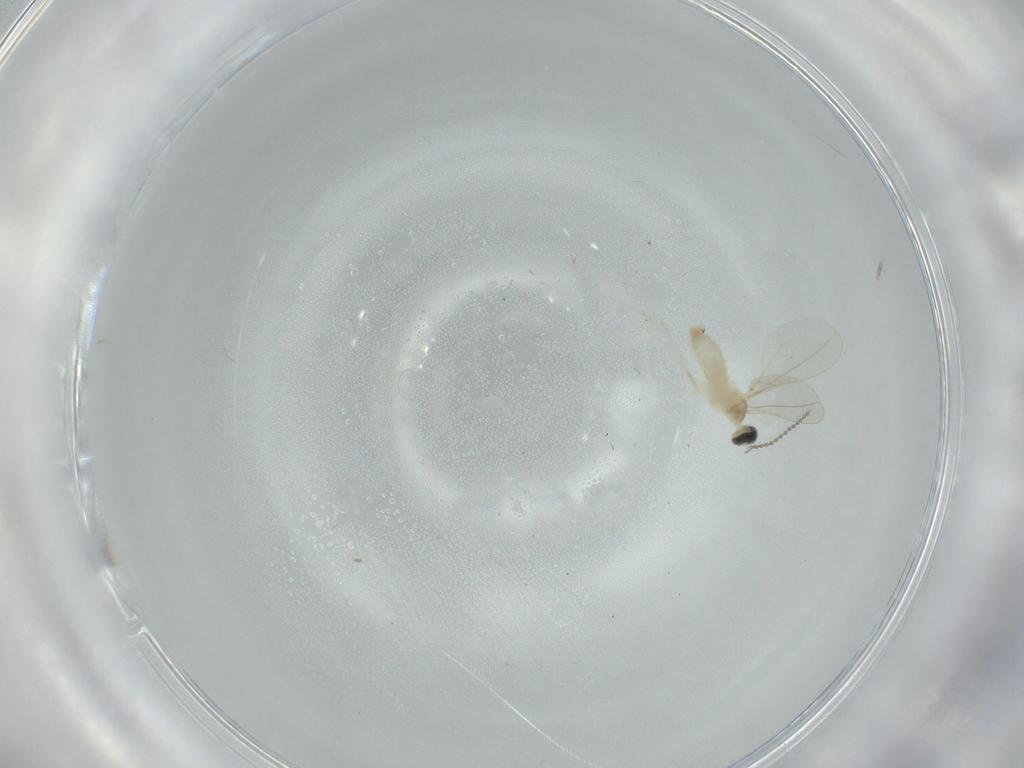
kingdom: Animalia
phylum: Arthropoda
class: Insecta
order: Diptera
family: Cecidomyiidae
